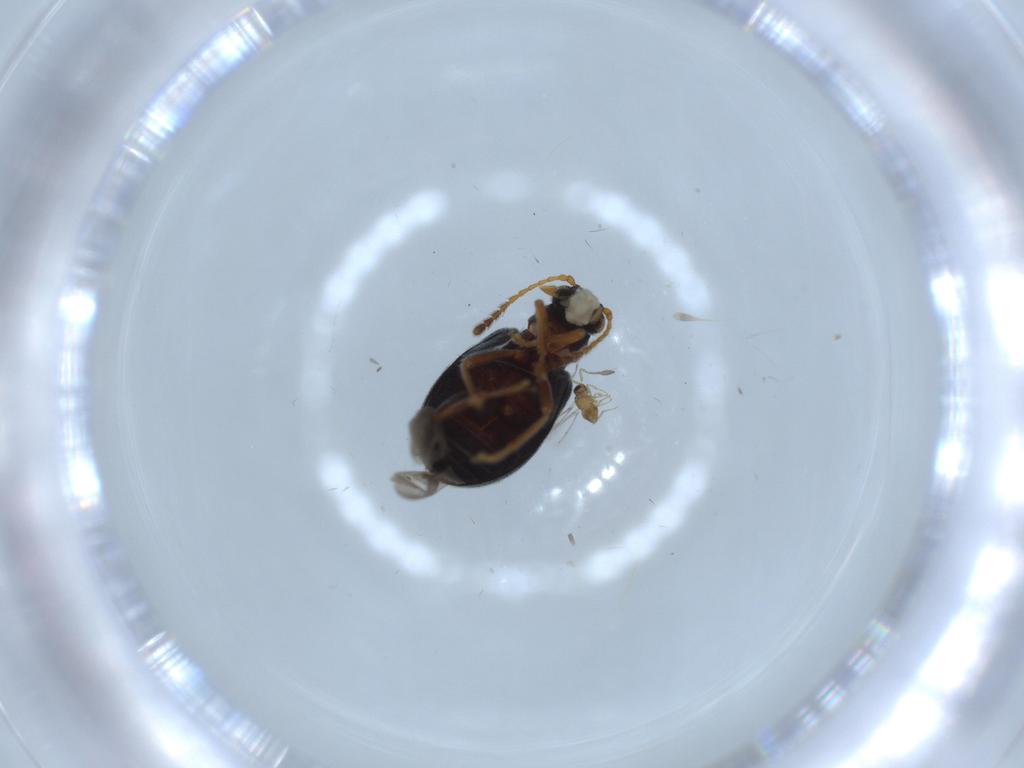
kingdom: Animalia
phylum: Arthropoda
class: Insecta
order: Coleoptera
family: Aderidae
